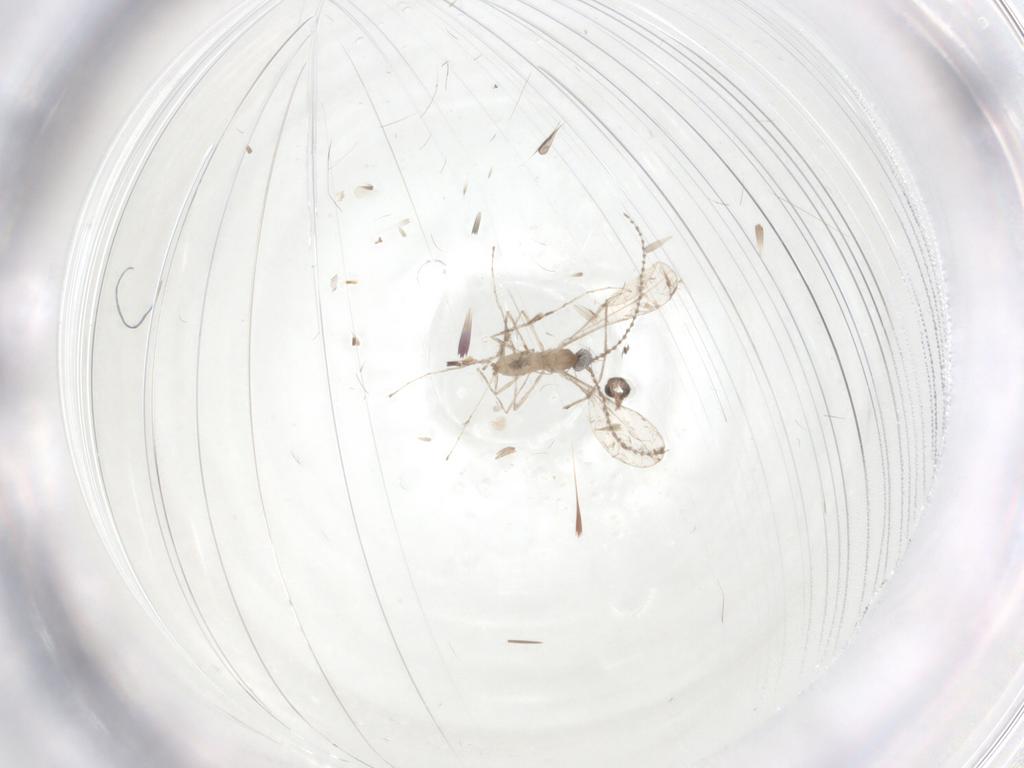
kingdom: Animalia
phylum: Arthropoda
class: Insecta
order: Diptera
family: Cecidomyiidae
